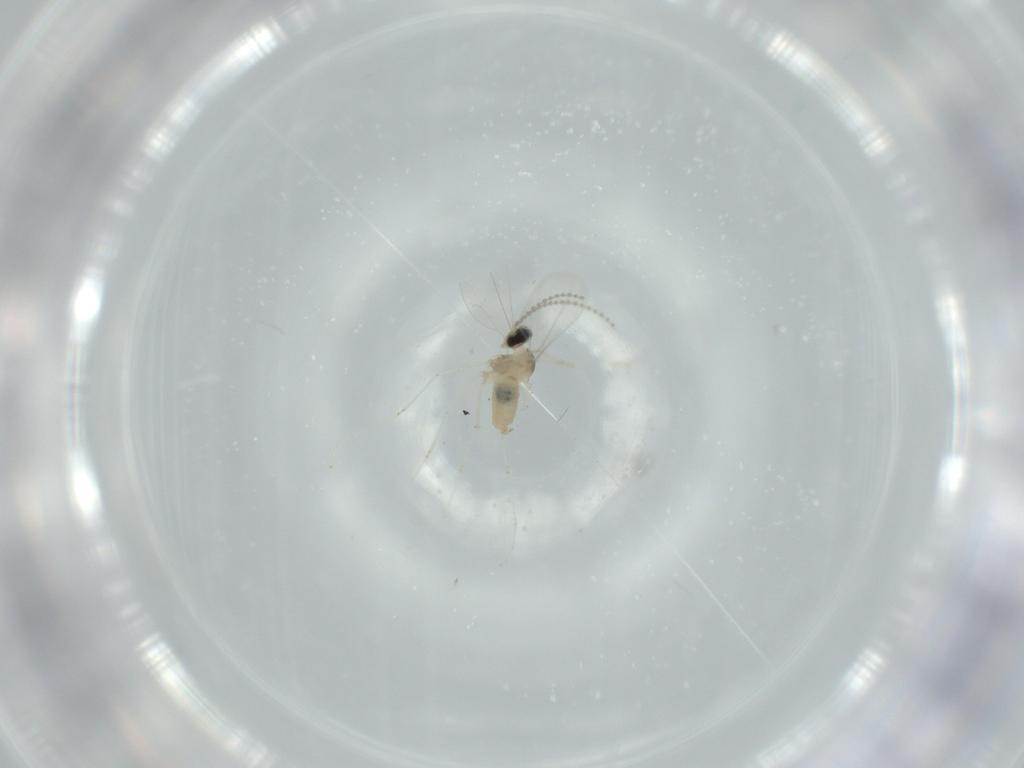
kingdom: Animalia
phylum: Arthropoda
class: Insecta
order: Diptera
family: Cecidomyiidae
